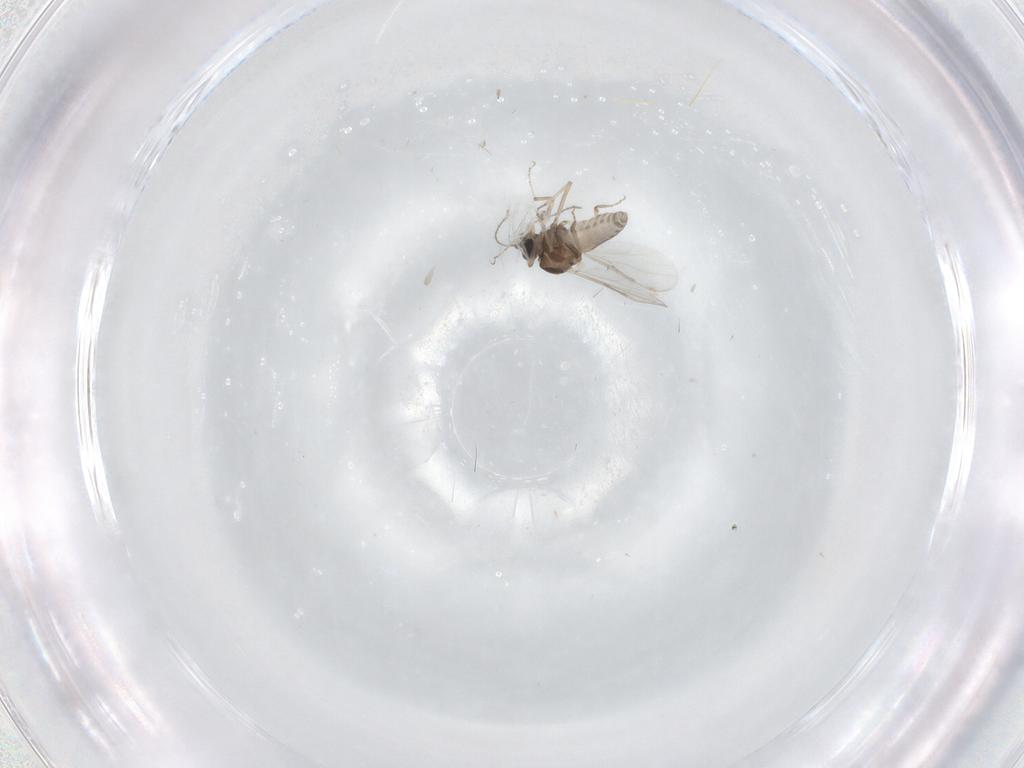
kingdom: Animalia
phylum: Arthropoda
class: Insecta
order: Diptera
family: Ceratopogonidae
